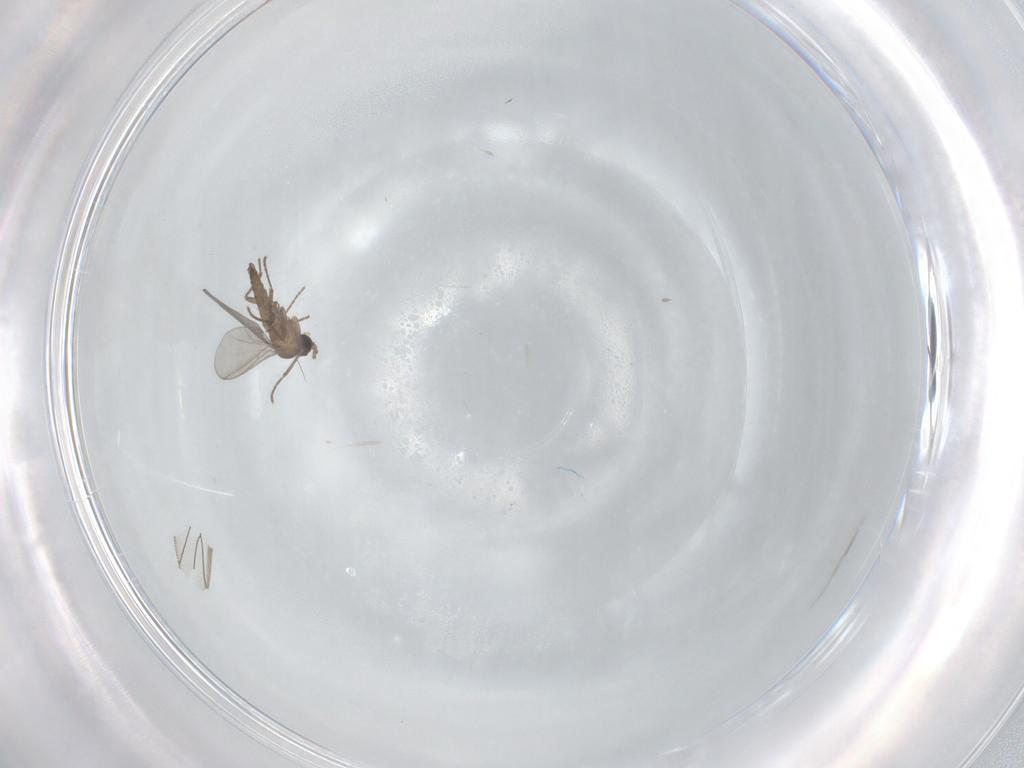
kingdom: Animalia
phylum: Arthropoda
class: Insecta
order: Diptera
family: Sciaridae
